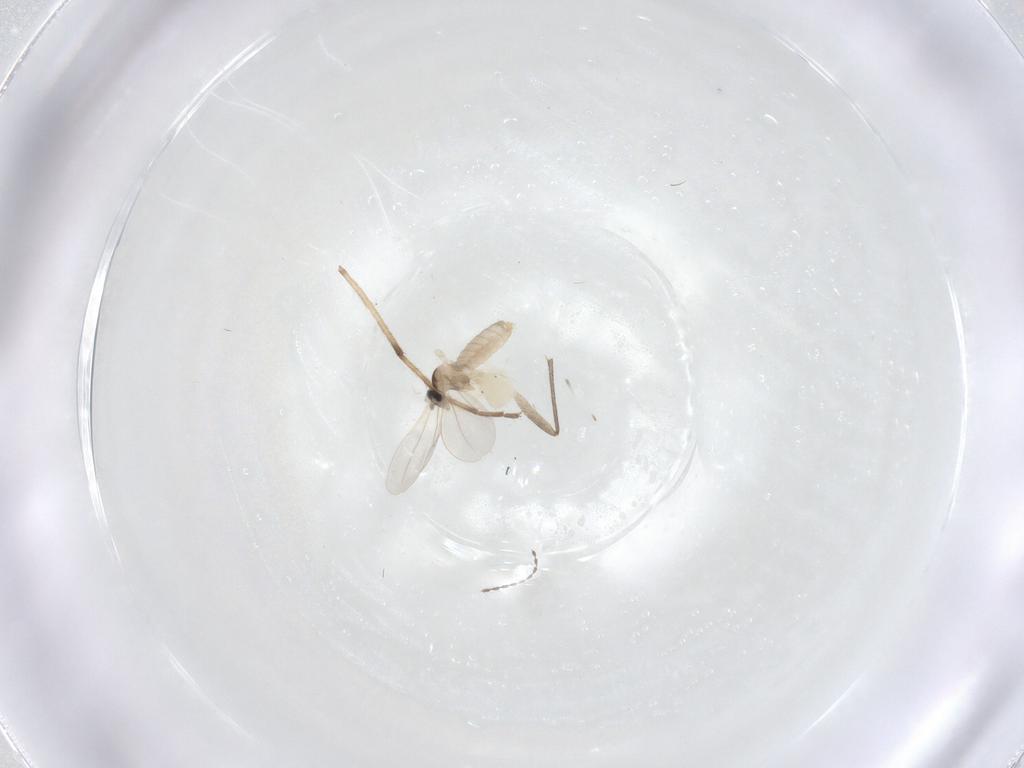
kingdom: Animalia
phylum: Arthropoda
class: Insecta
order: Diptera
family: Cecidomyiidae
